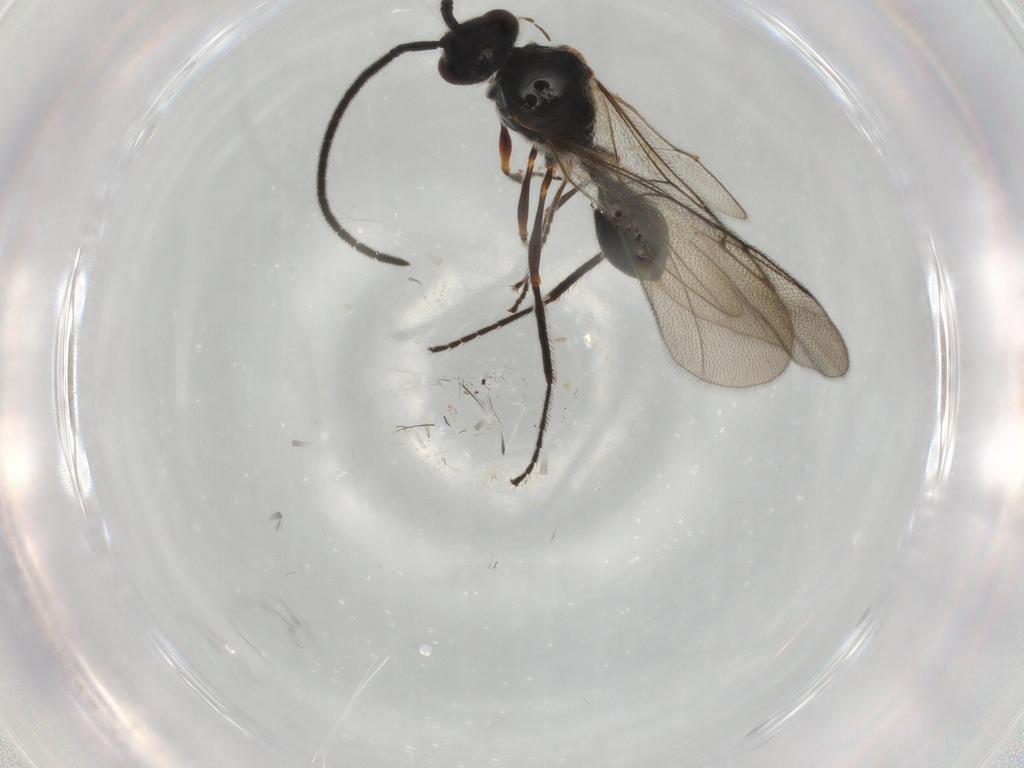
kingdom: Animalia
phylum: Arthropoda
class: Insecta
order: Hymenoptera
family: Diapriidae
